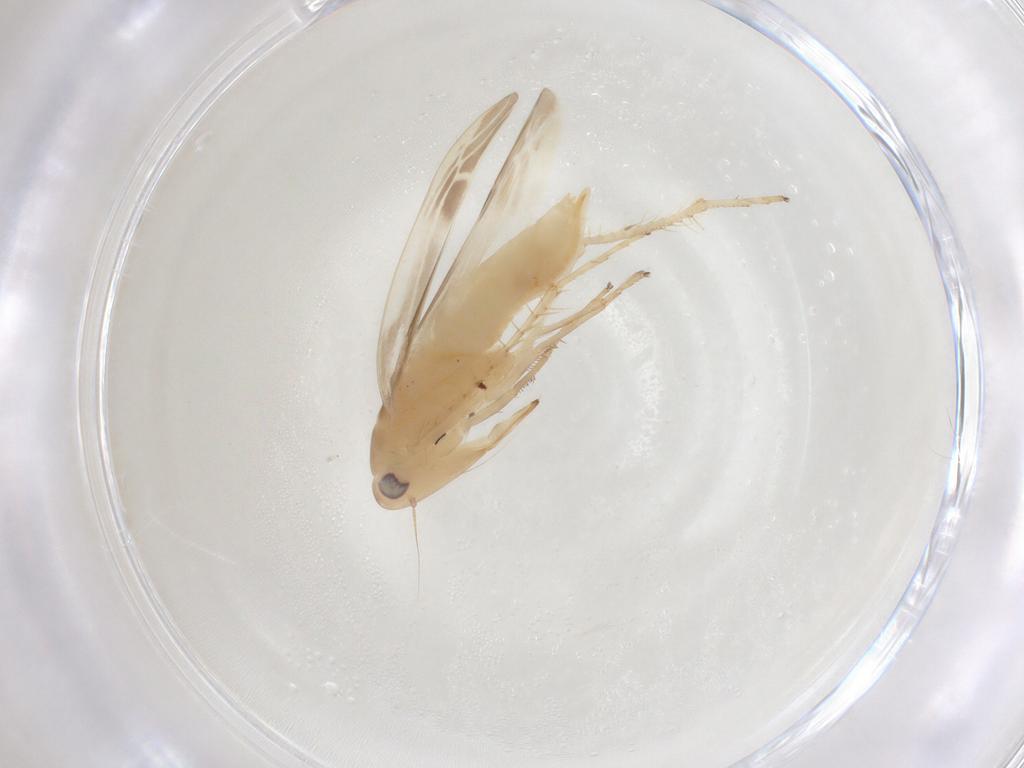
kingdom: Animalia
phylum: Arthropoda
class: Insecta
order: Hemiptera
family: Cicadellidae
